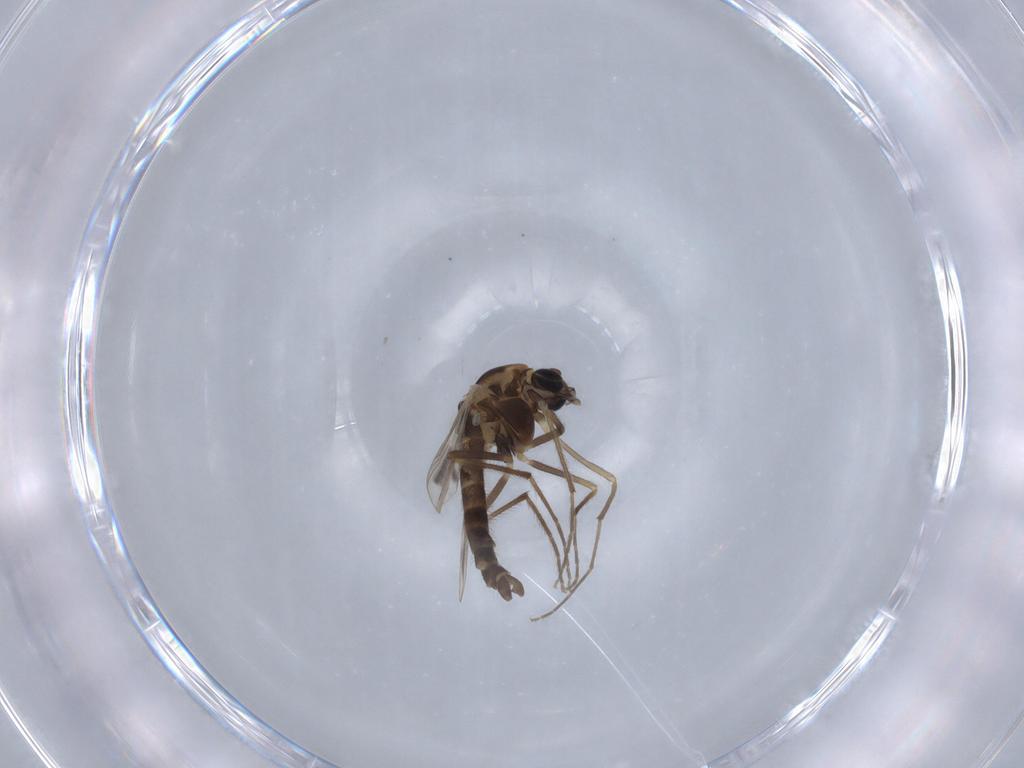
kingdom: Animalia
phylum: Arthropoda
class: Insecta
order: Diptera
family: Chironomidae
